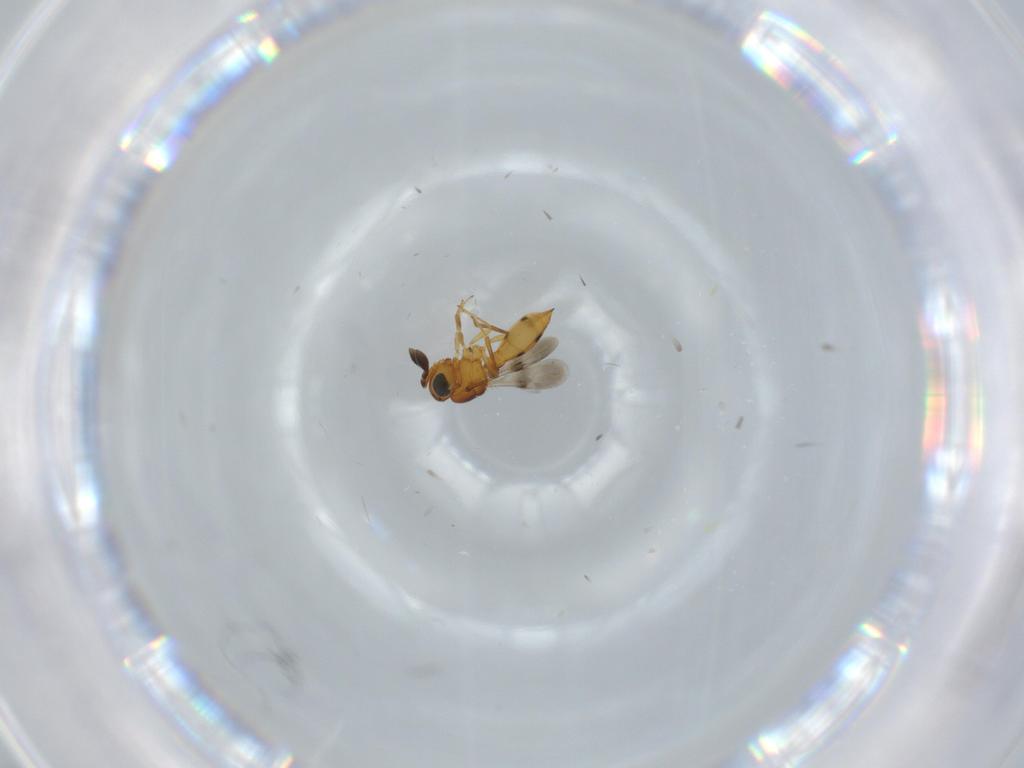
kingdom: Animalia
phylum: Arthropoda
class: Insecta
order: Hymenoptera
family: Scelionidae
